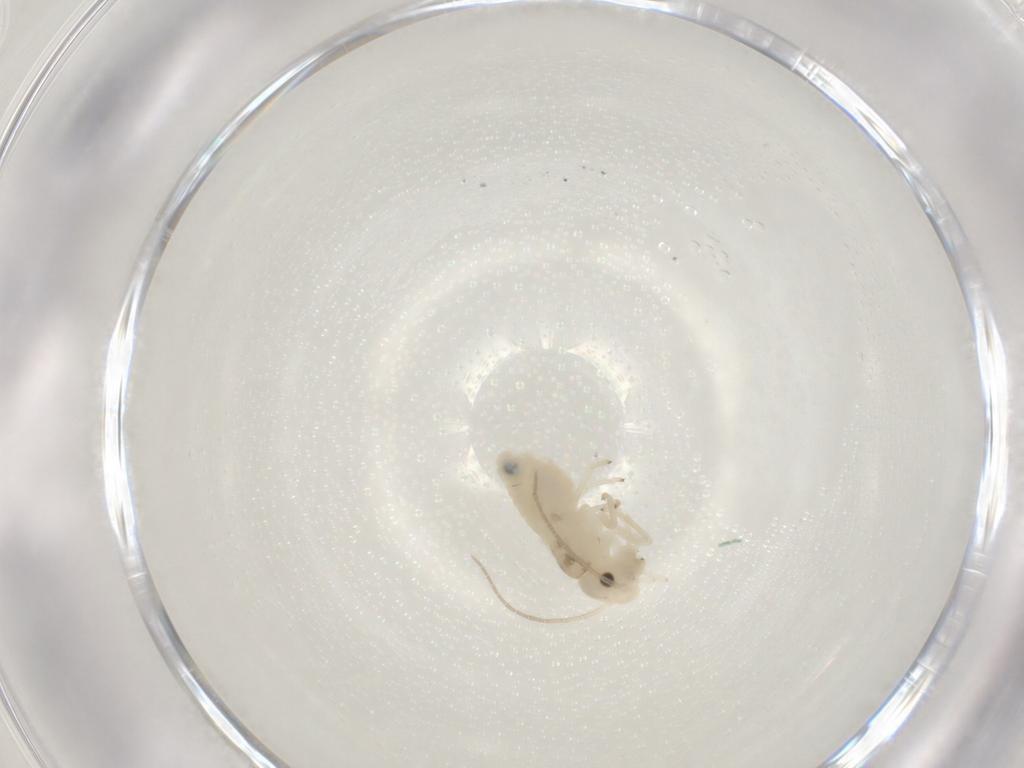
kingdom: Animalia
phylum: Arthropoda
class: Insecta
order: Psocodea
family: Caeciliusidae
